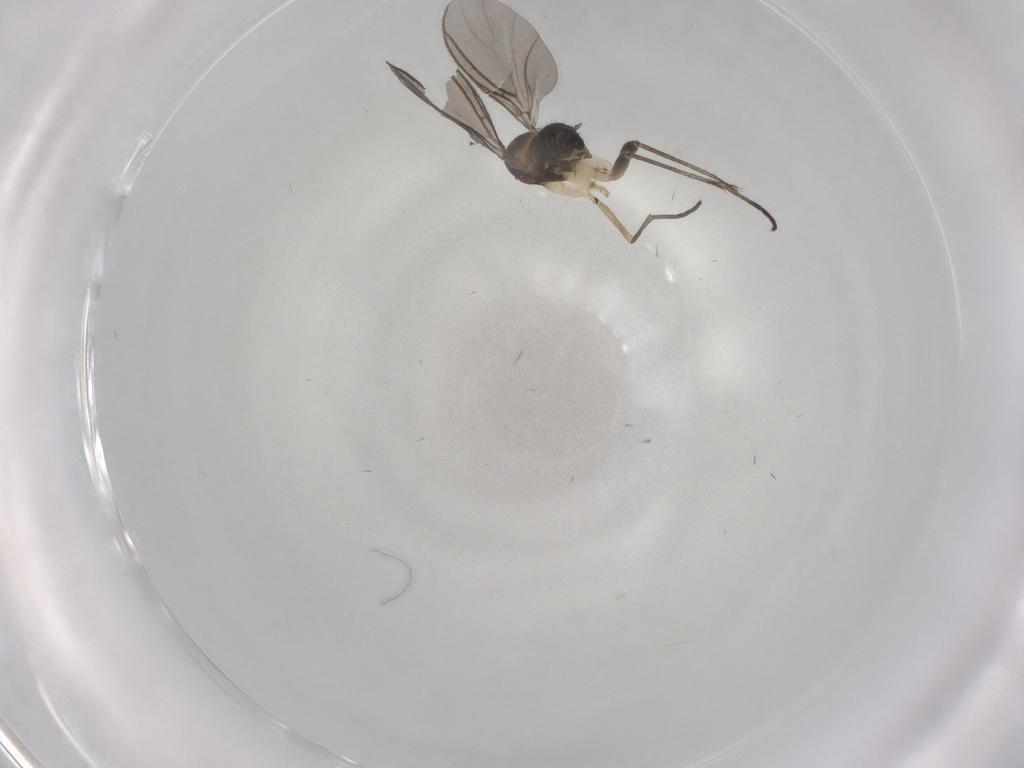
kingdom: Animalia
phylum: Arthropoda
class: Insecta
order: Diptera
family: Sciaridae
